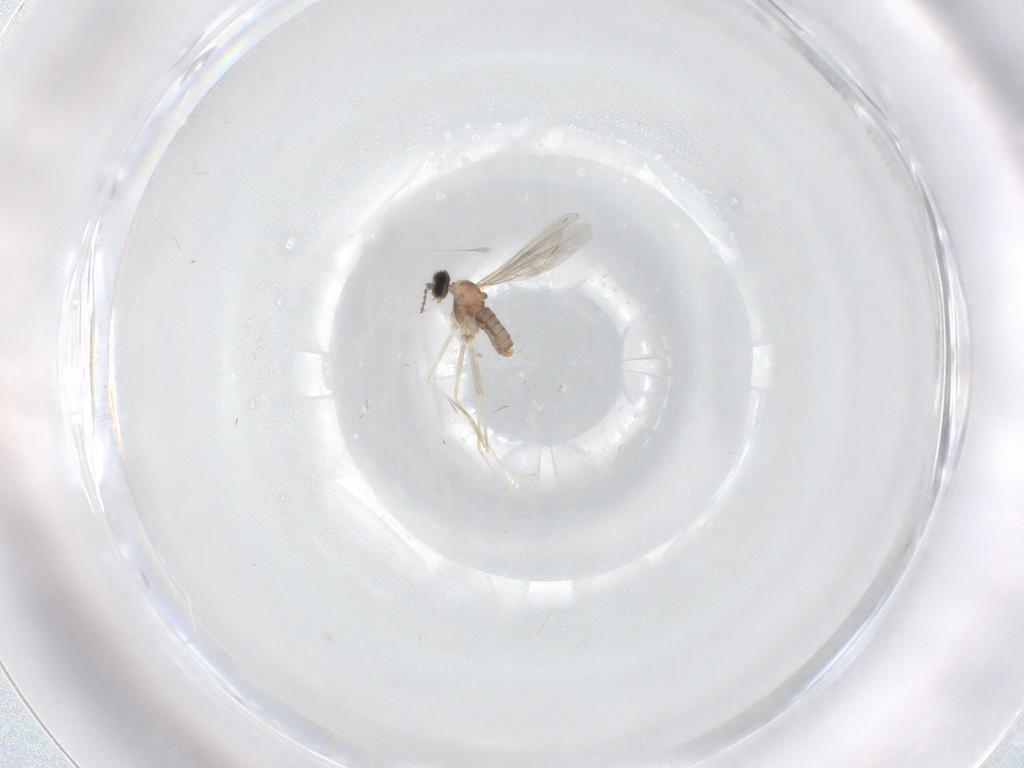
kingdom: Animalia
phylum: Arthropoda
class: Insecta
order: Diptera
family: Cecidomyiidae
